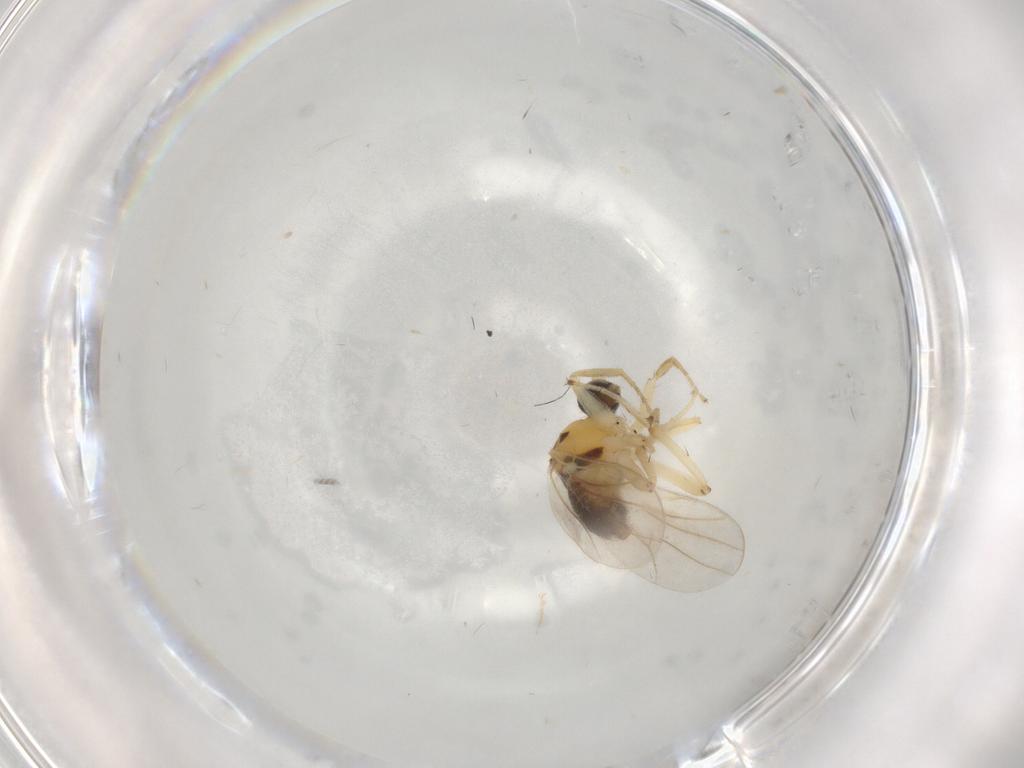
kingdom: Animalia
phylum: Arthropoda
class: Insecta
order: Diptera
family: Hybotidae
